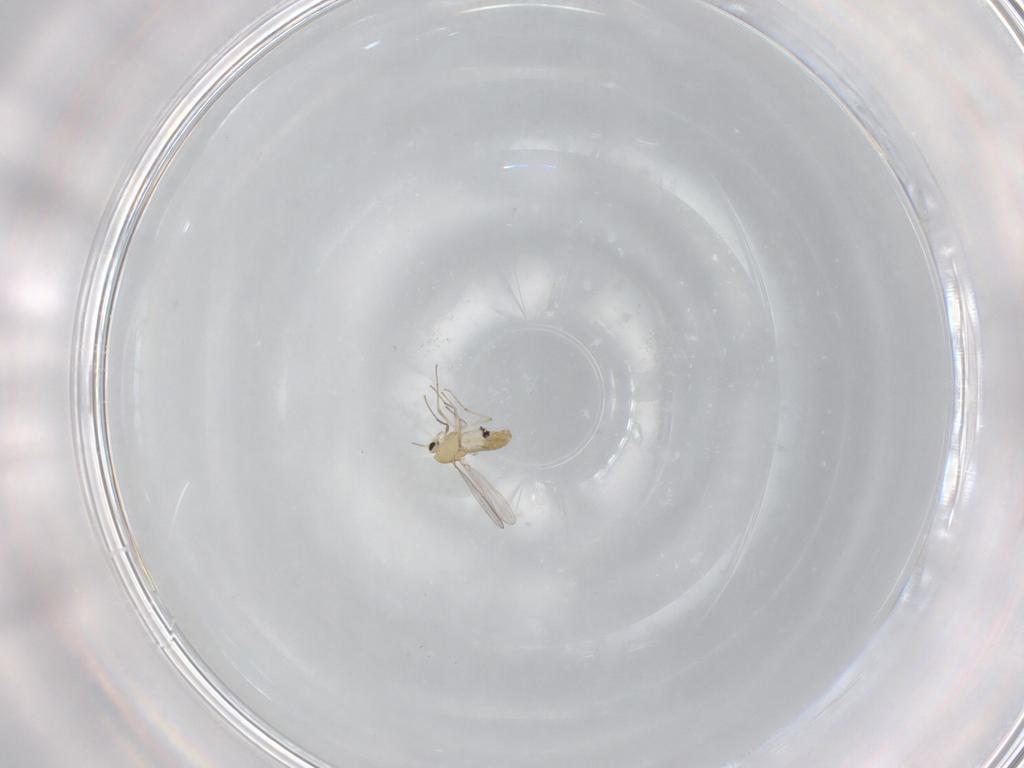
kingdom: Animalia
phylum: Arthropoda
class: Insecta
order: Diptera
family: Chironomidae
